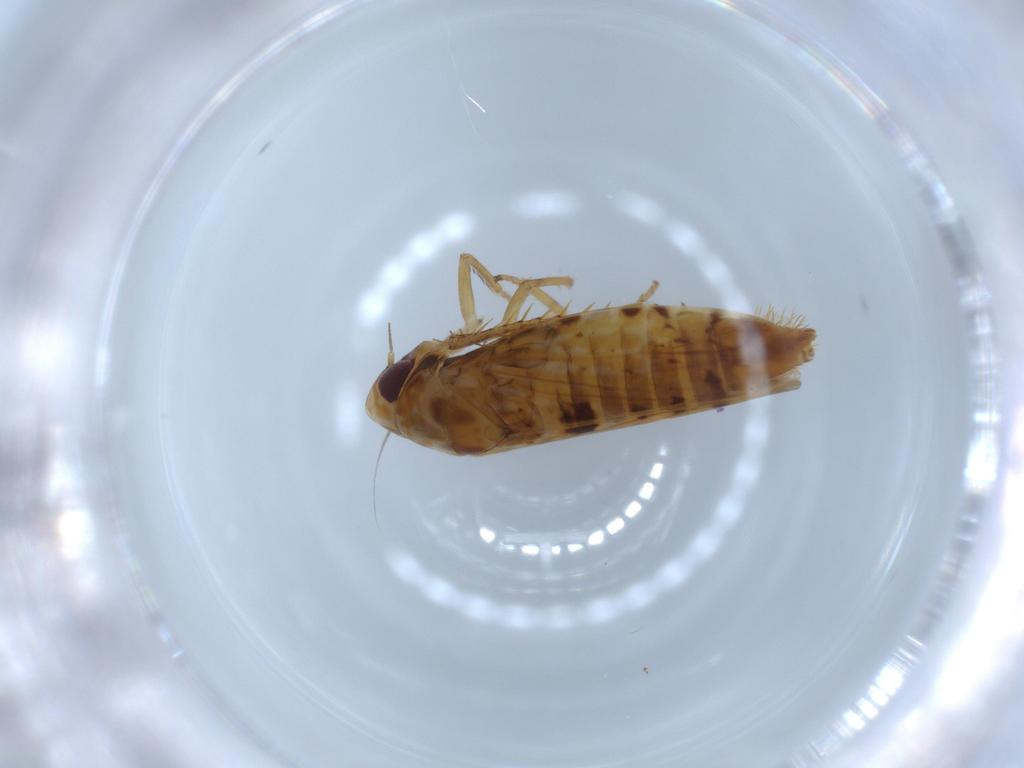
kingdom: Animalia
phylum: Arthropoda
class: Insecta
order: Hemiptera
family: Cicadellidae
